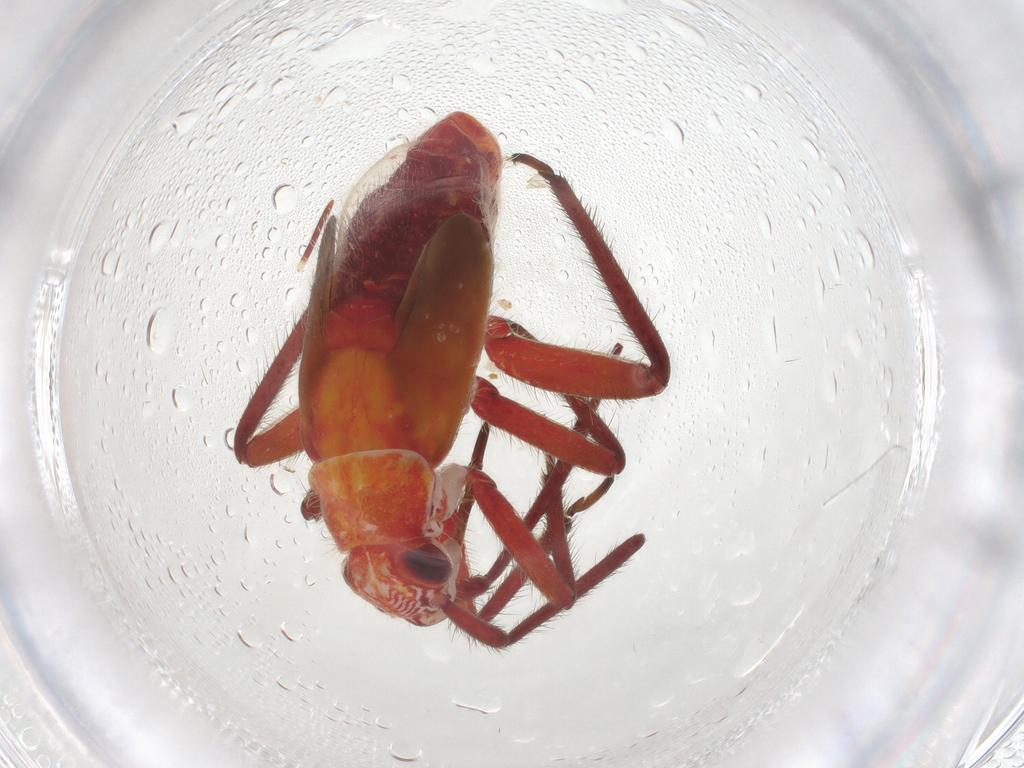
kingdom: Animalia
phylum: Arthropoda
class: Insecta
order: Hemiptera
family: Miridae
